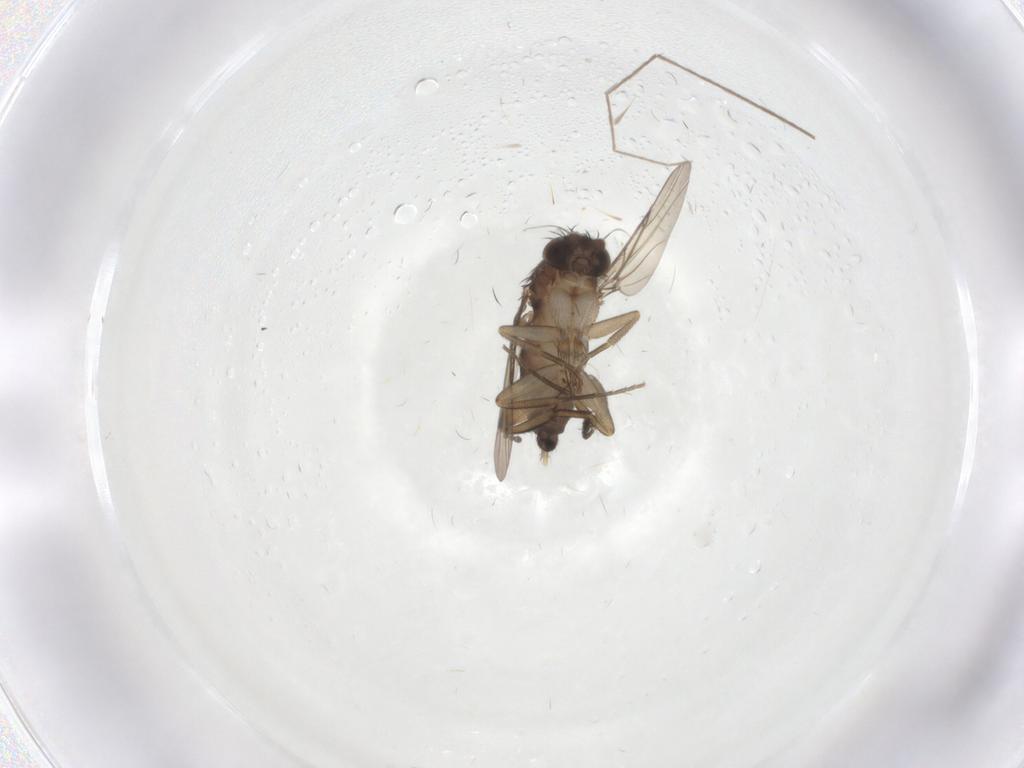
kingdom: Animalia
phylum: Arthropoda
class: Insecta
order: Diptera
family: Phoridae
